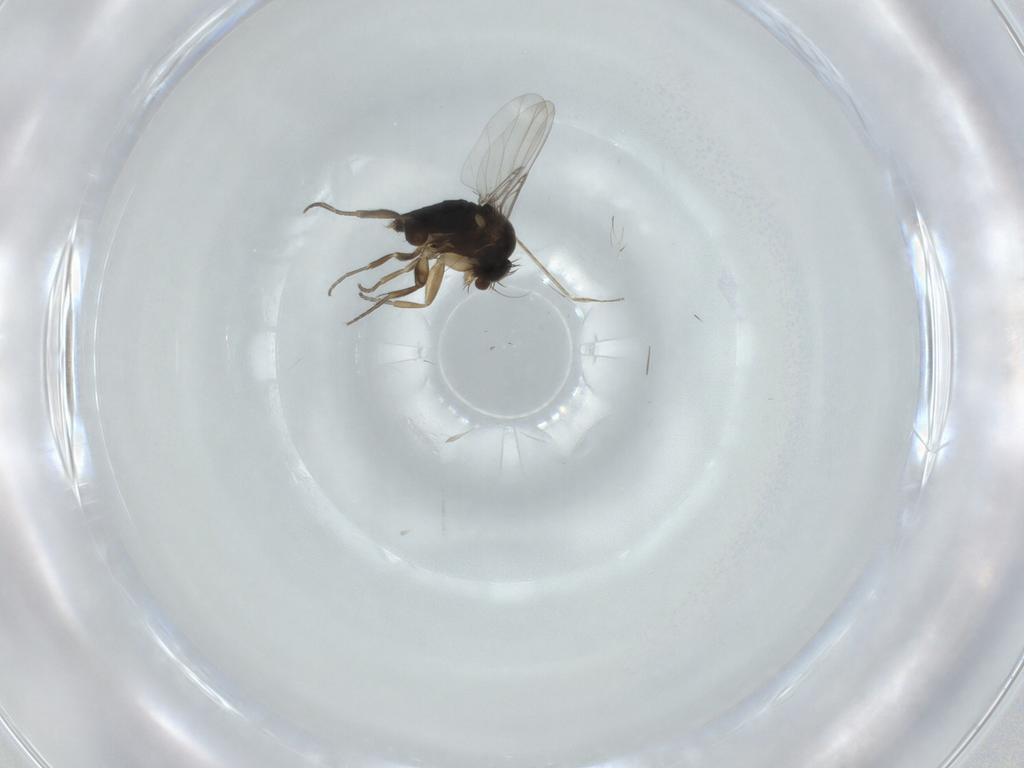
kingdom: Animalia
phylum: Arthropoda
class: Insecta
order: Diptera
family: Phoridae
